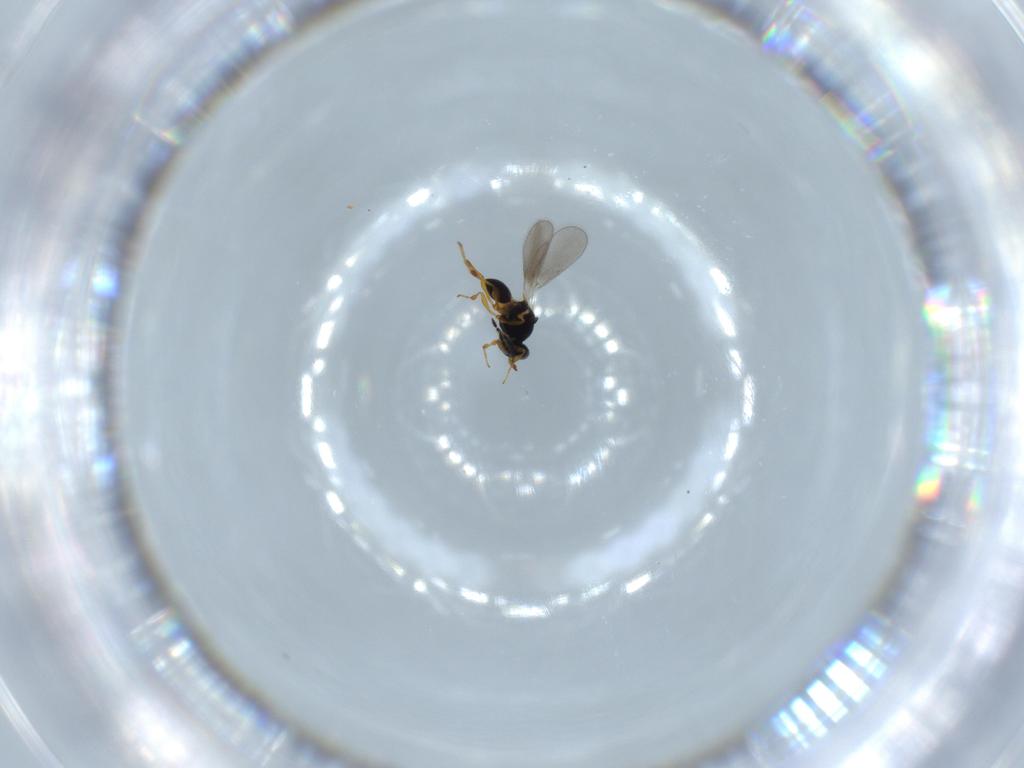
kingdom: Animalia
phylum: Arthropoda
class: Insecta
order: Hymenoptera
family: Platygastridae
